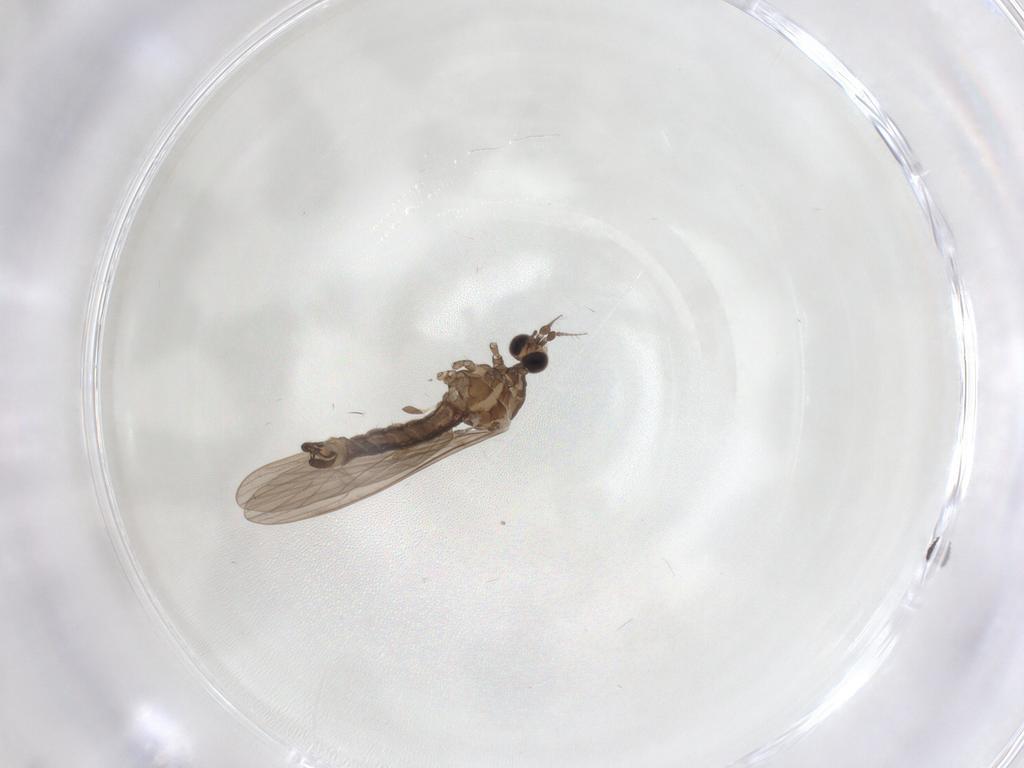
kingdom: Animalia
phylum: Arthropoda
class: Insecta
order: Diptera
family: Limoniidae
